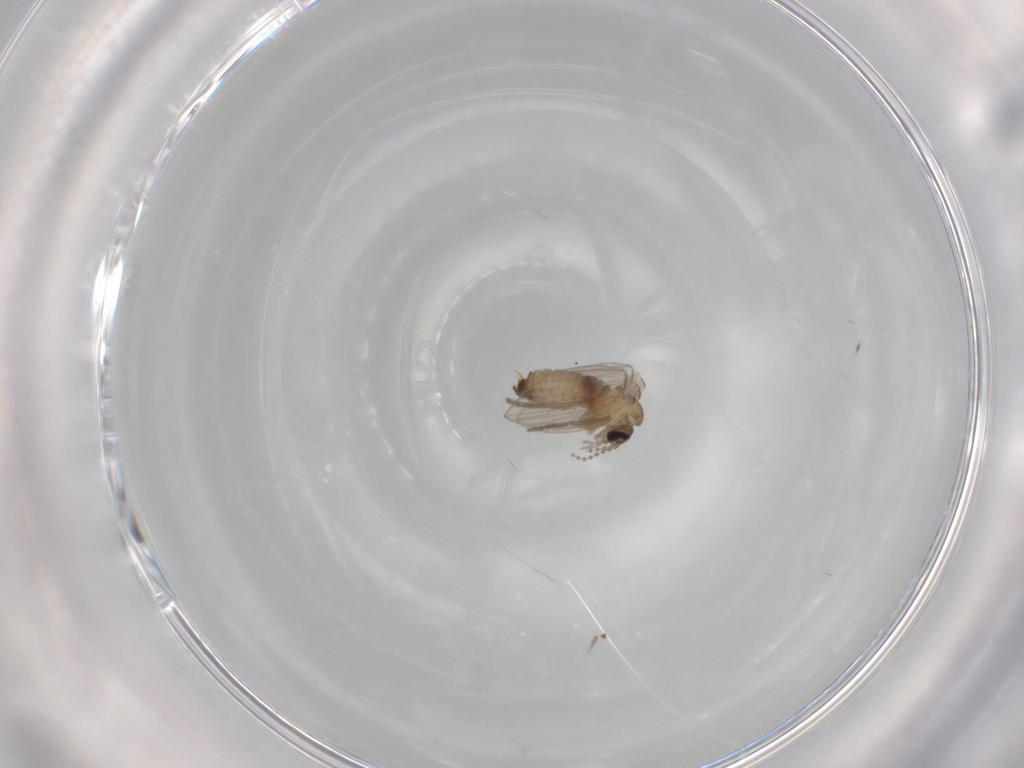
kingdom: Animalia
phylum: Arthropoda
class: Insecta
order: Diptera
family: Psychodidae
